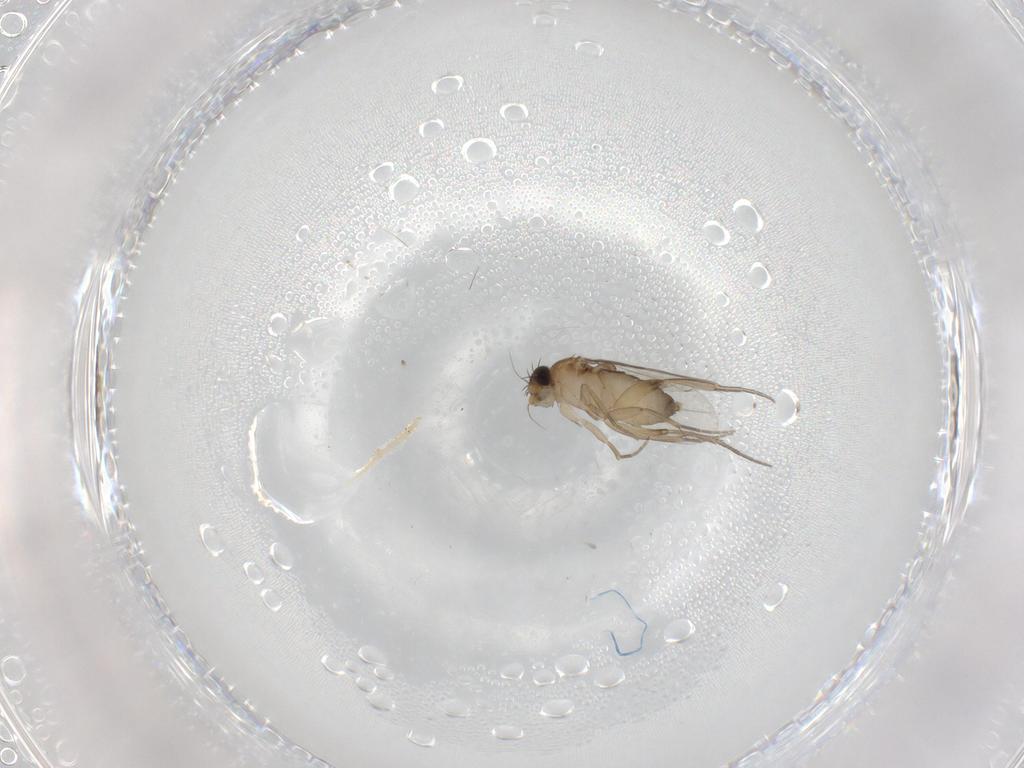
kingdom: Animalia
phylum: Arthropoda
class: Insecta
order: Diptera
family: Phoridae
